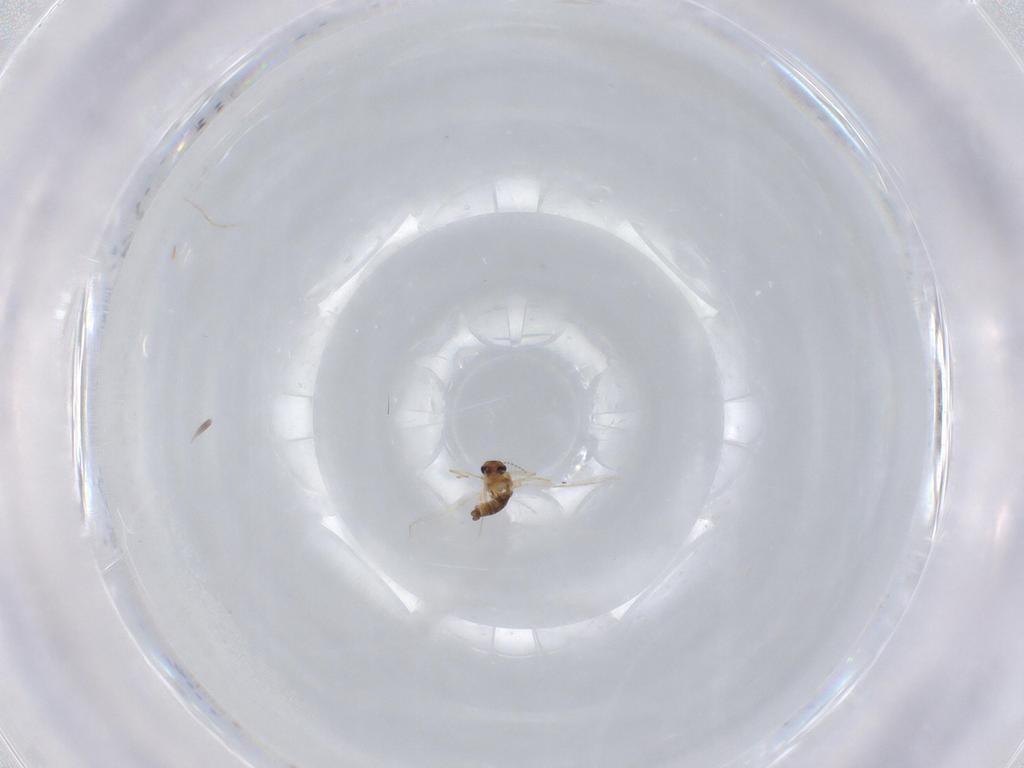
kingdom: Animalia
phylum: Arthropoda
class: Insecta
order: Diptera
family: Chironomidae
